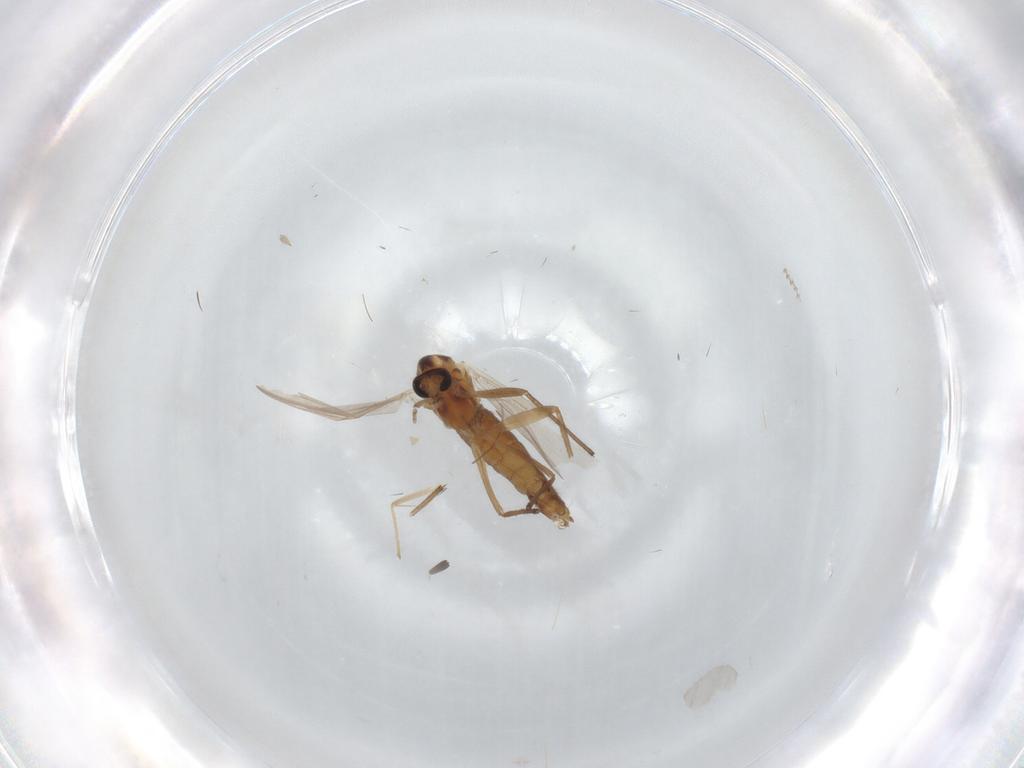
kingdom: Animalia
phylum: Arthropoda
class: Insecta
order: Diptera
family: Chironomidae
